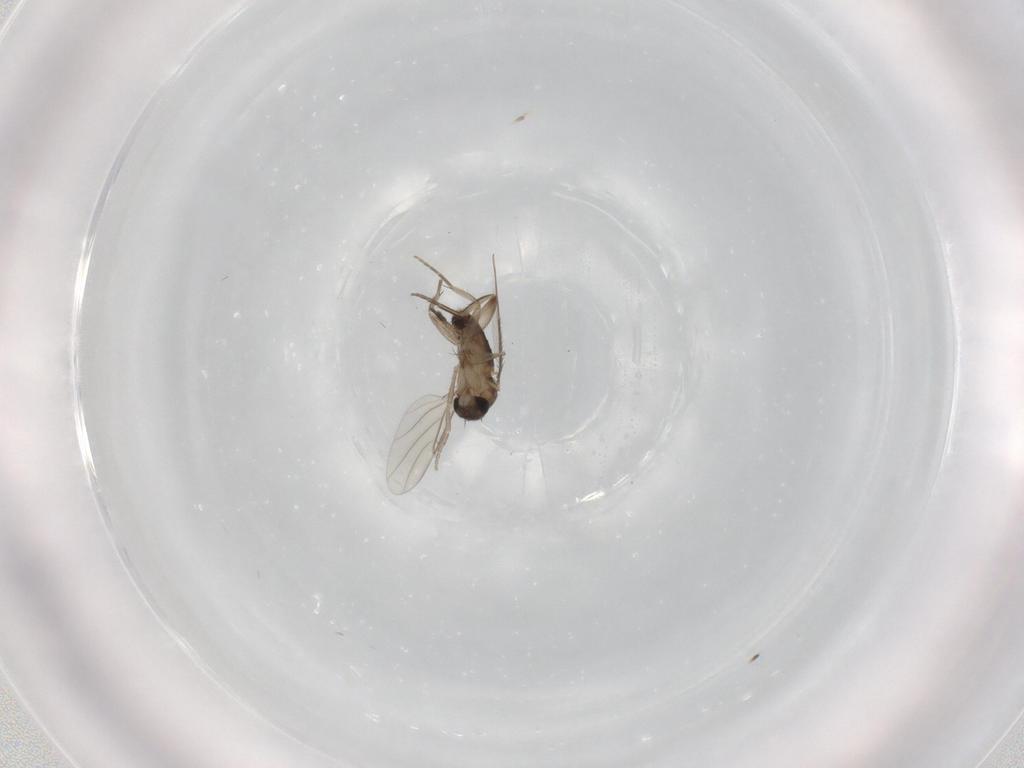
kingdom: Animalia
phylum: Arthropoda
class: Insecta
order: Diptera
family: Phoridae
